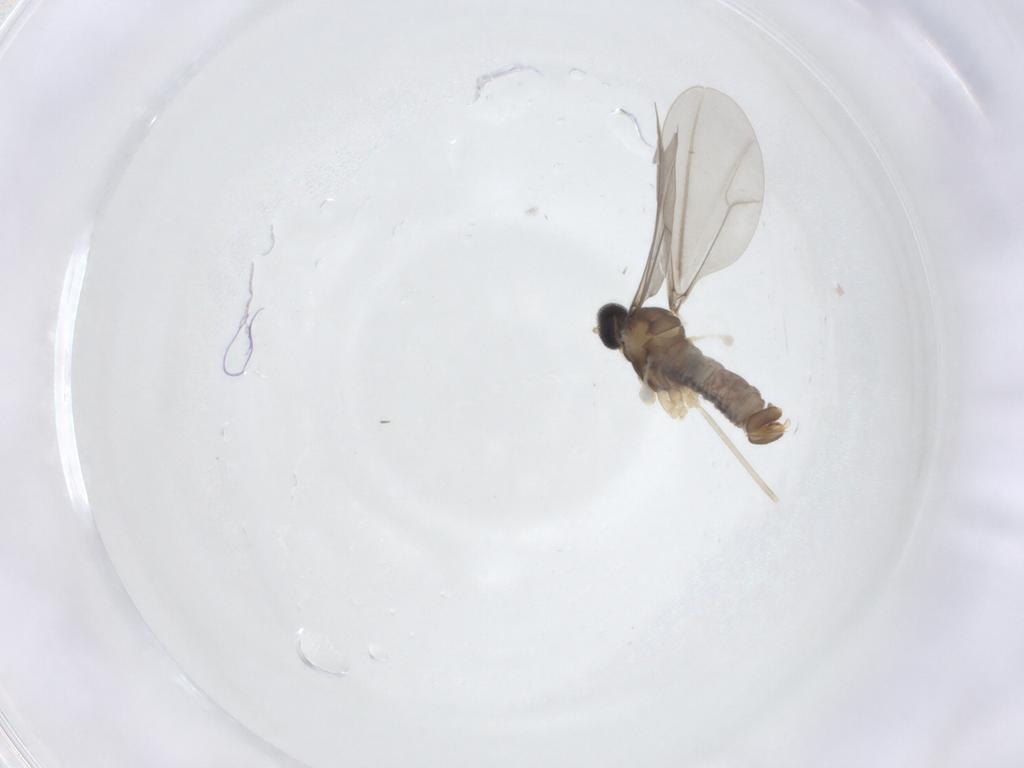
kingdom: Animalia
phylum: Arthropoda
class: Insecta
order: Diptera
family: Cecidomyiidae
